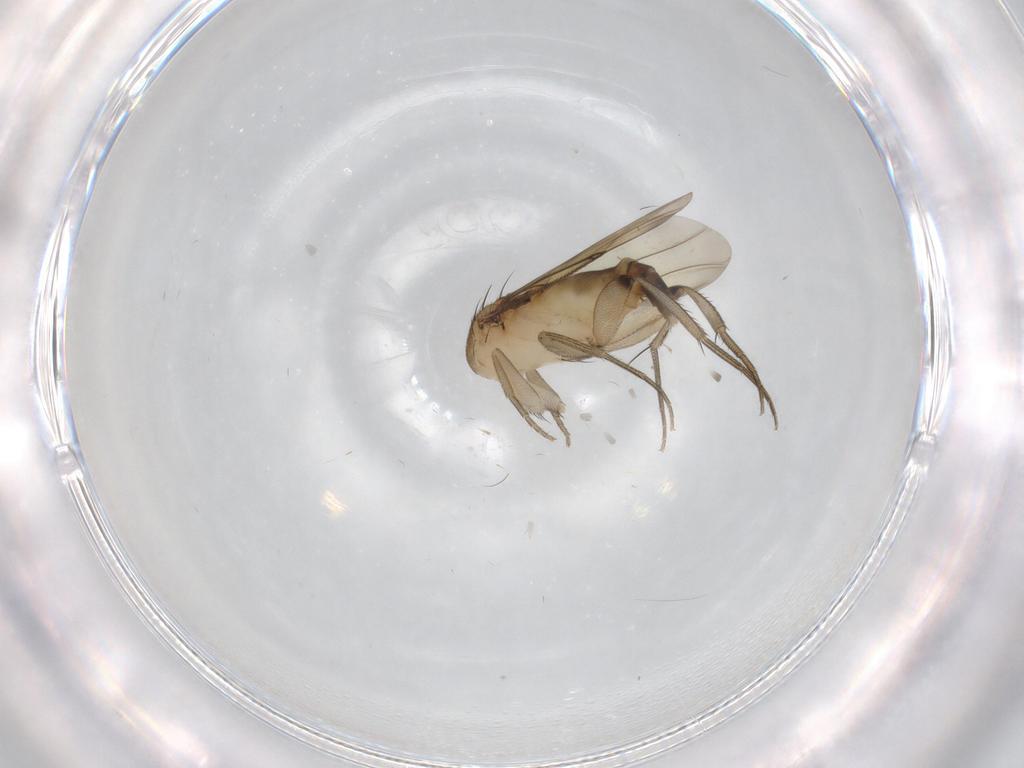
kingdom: Animalia
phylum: Arthropoda
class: Insecta
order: Diptera
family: Phoridae
